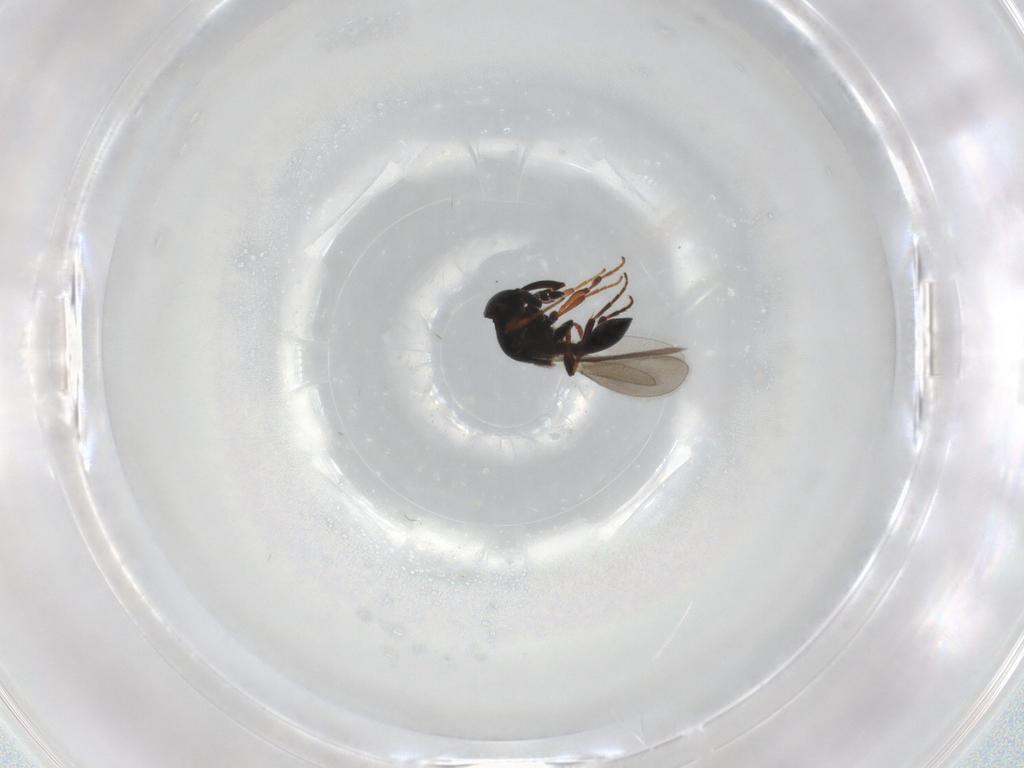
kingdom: Animalia
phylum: Arthropoda
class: Insecta
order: Hymenoptera
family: Platygastridae
